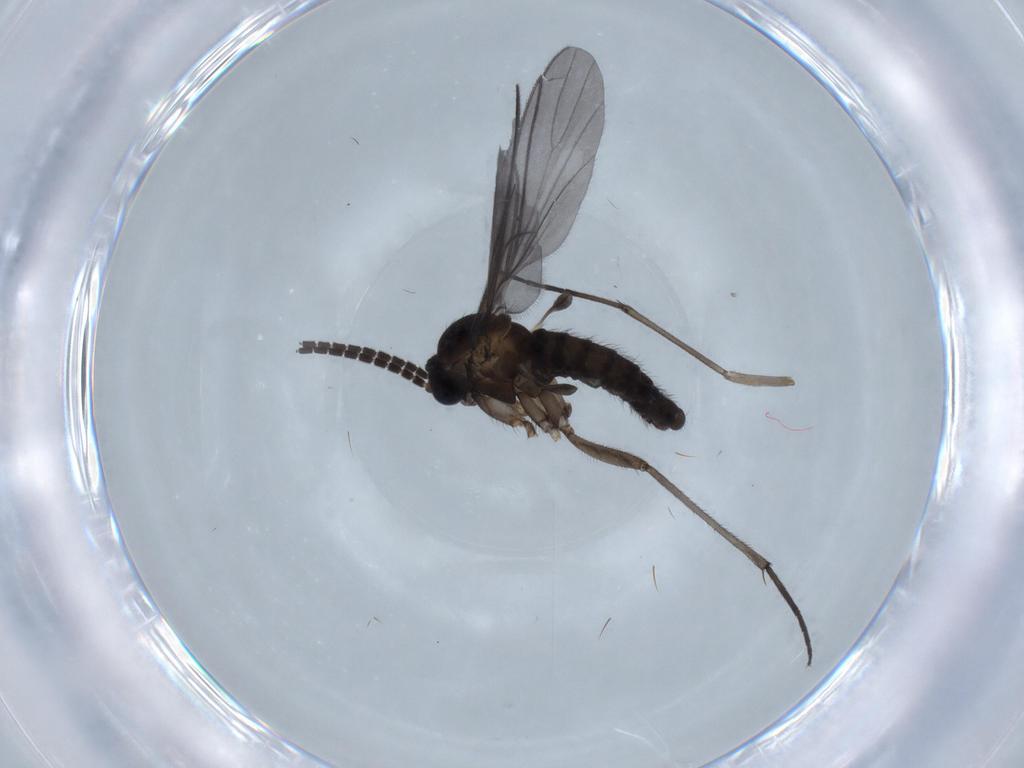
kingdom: Animalia
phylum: Arthropoda
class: Insecta
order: Diptera
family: Sciaridae
